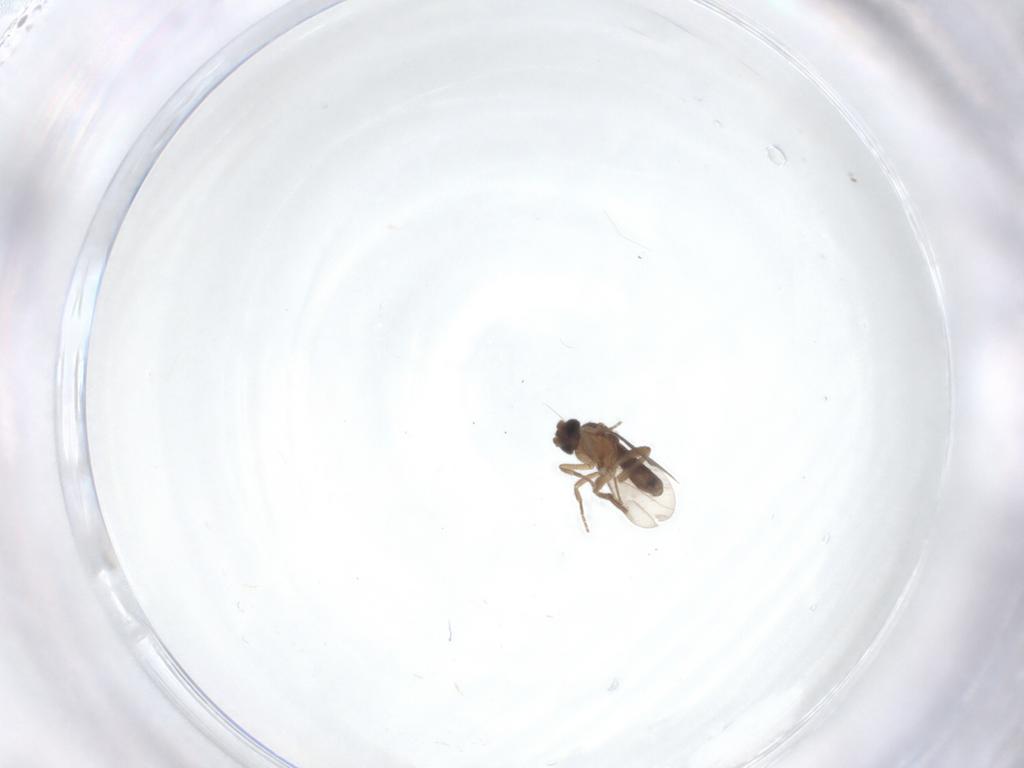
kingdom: Animalia
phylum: Arthropoda
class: Insecta
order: Diptera
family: Phoridae
